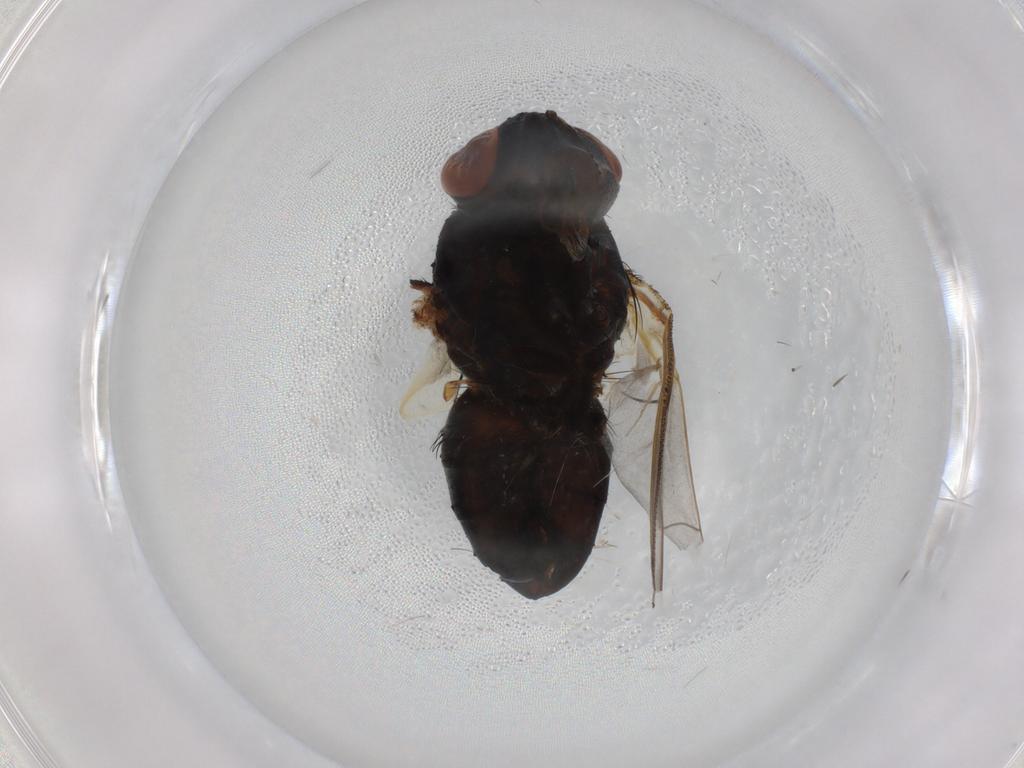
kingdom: Animalia
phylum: Arthropoda
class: Insecta
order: Diptera
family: Tachinidae
